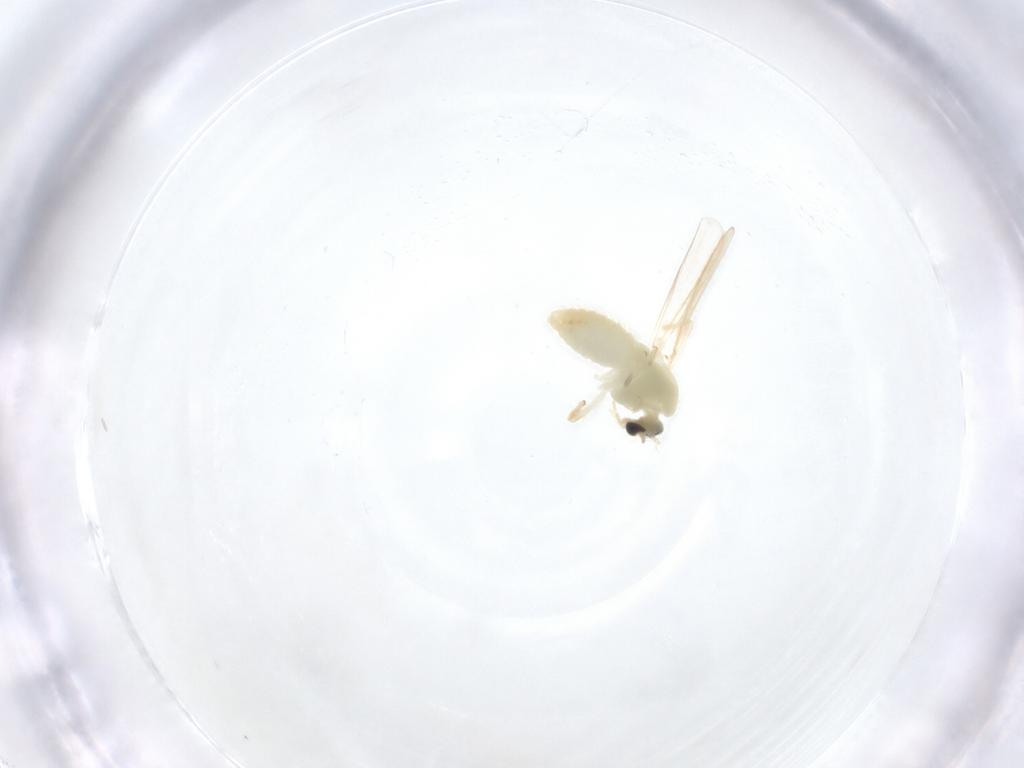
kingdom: Animalia
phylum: Arthropoda
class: Insecta
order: Diptera
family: Chironomidae
